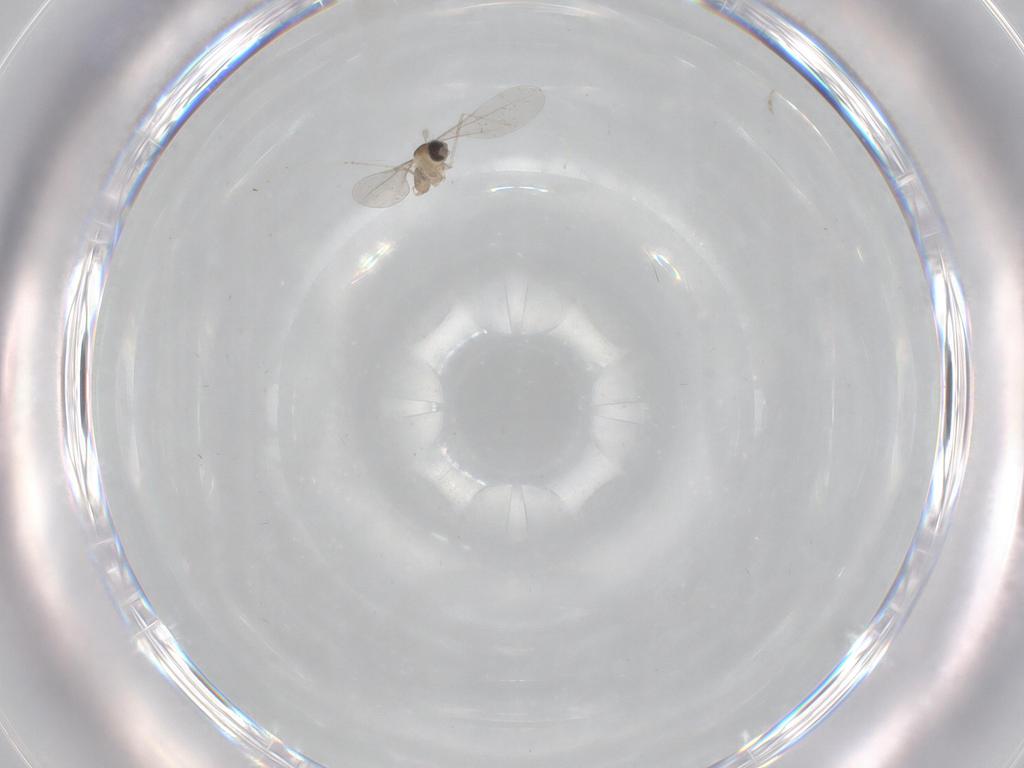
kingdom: Animalia
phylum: Arthropoda
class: Insecta
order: Diptera
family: Cecidomyiidae
